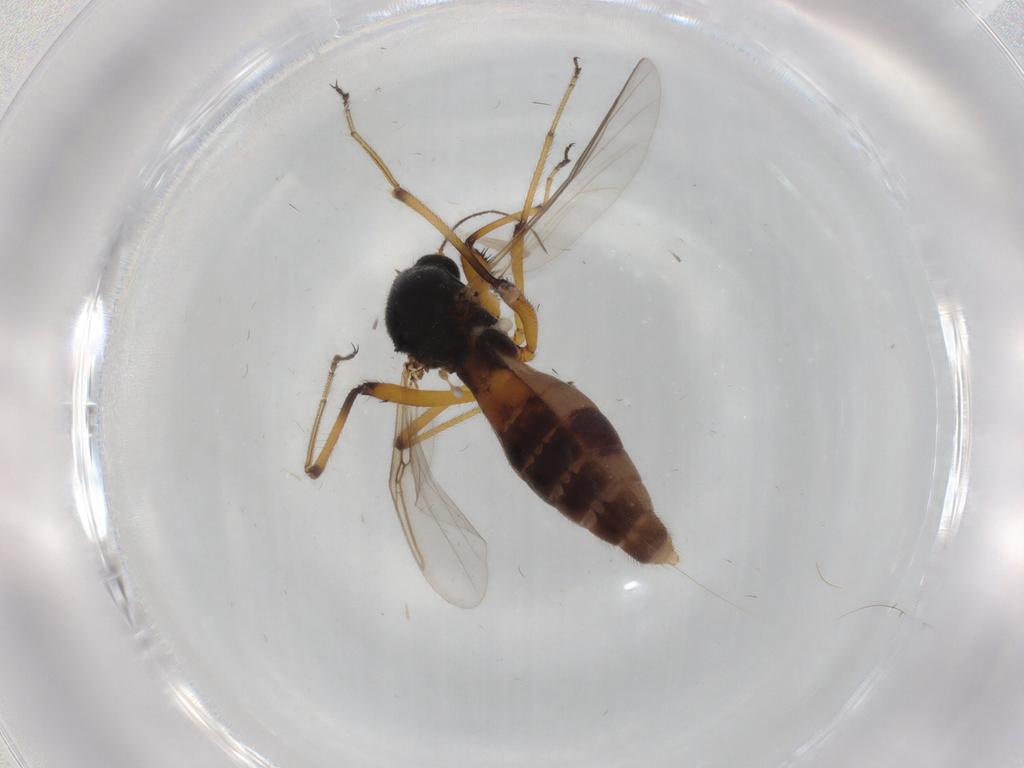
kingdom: Animalia
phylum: Arthropoda
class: Insecta
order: Diptera
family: Ceratopogonidae
